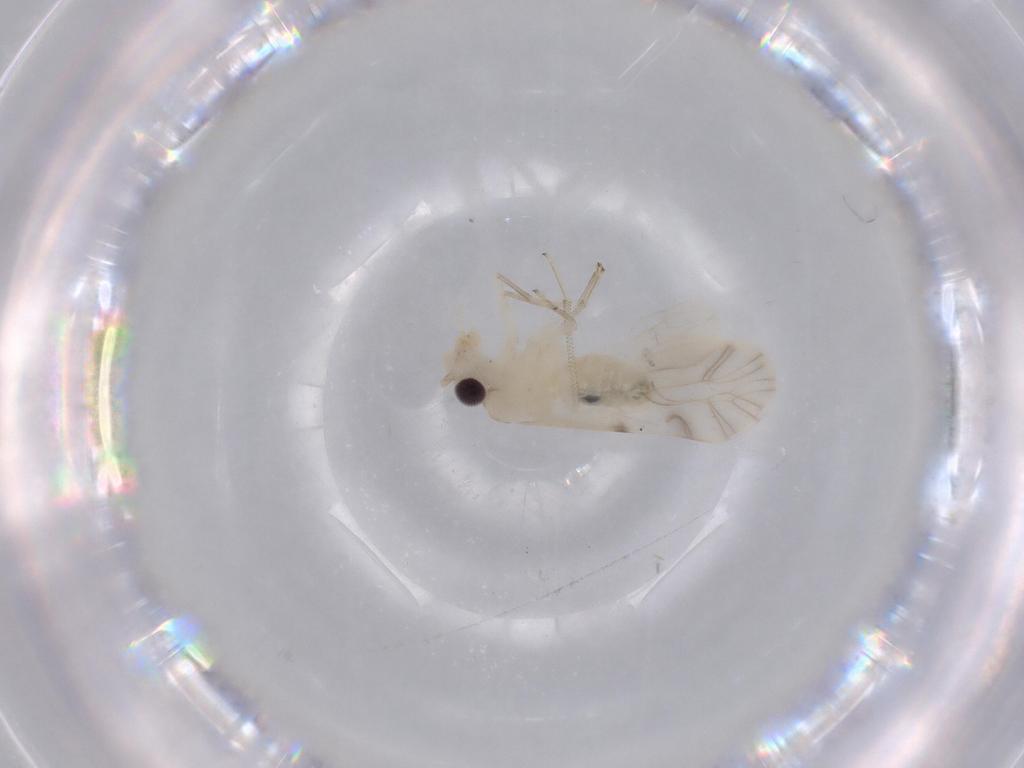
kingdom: Animalia
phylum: Arthropoda
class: Insecta
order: Psocodea
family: Caeciliusidae
